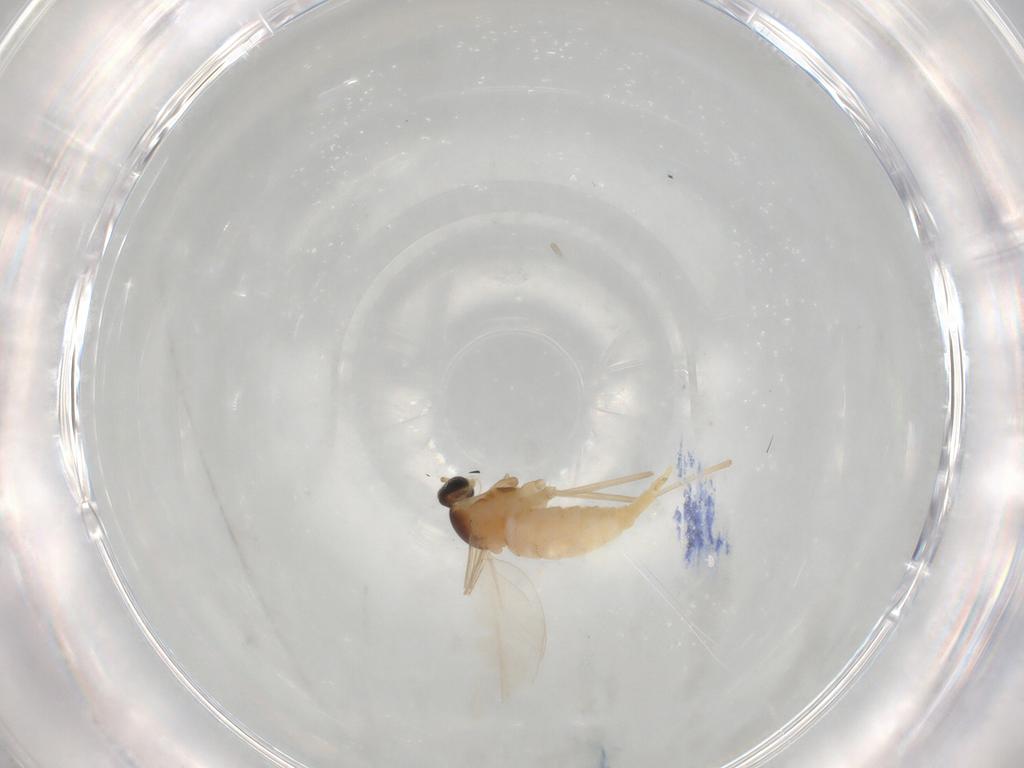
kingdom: Animalia
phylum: Arthropoda
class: Insecta
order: Diptera
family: Cecidomyiidae
